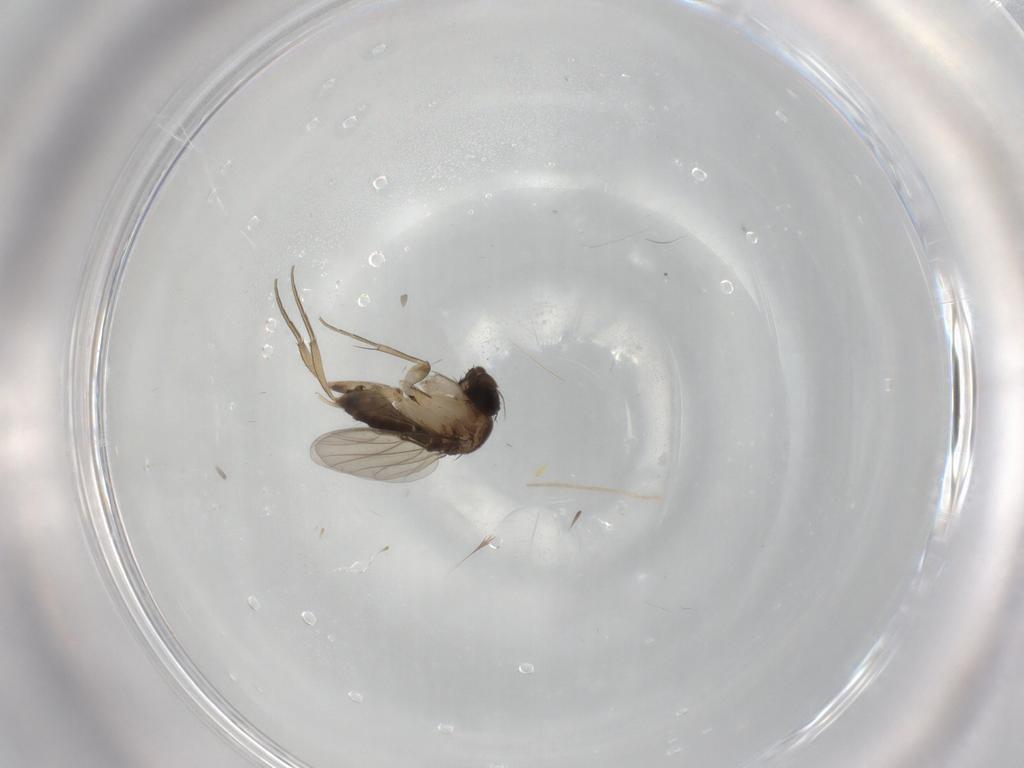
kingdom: Animalia
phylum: Arthropoda
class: Insecta
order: Diptera
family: Phoridae
